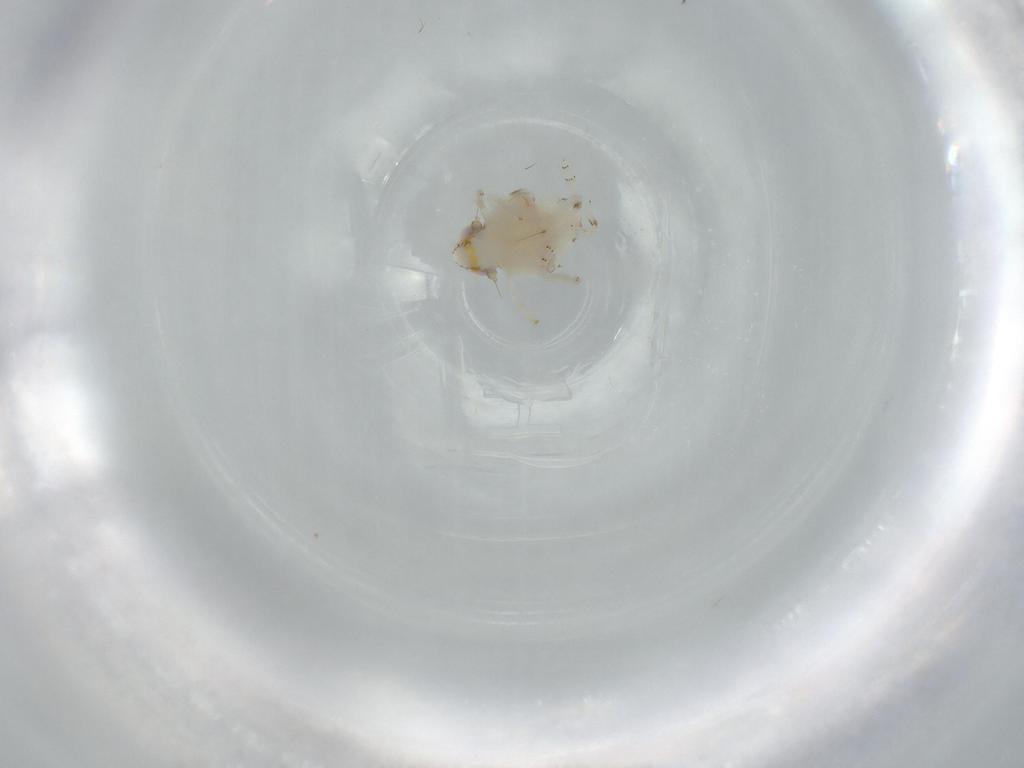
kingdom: Animalia
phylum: Arthropoda
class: Insecta
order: Hemiptera
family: Nogodinidae
